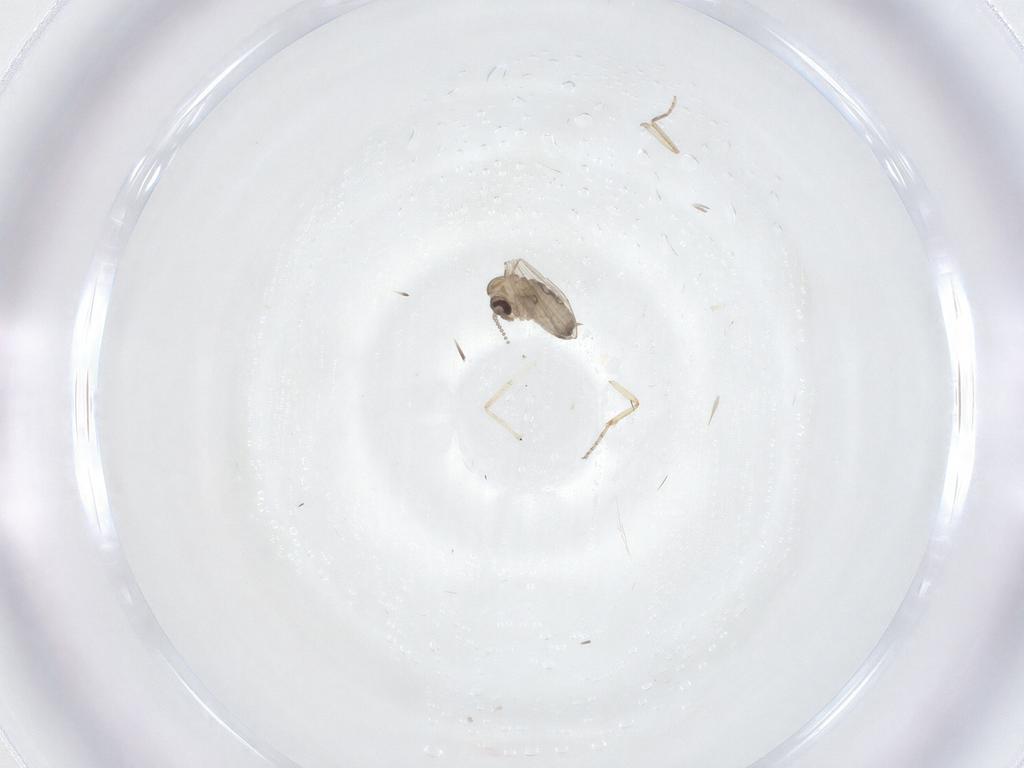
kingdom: Animalia
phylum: Arthropoda
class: Insecta
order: Diptera
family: Psychodidae
